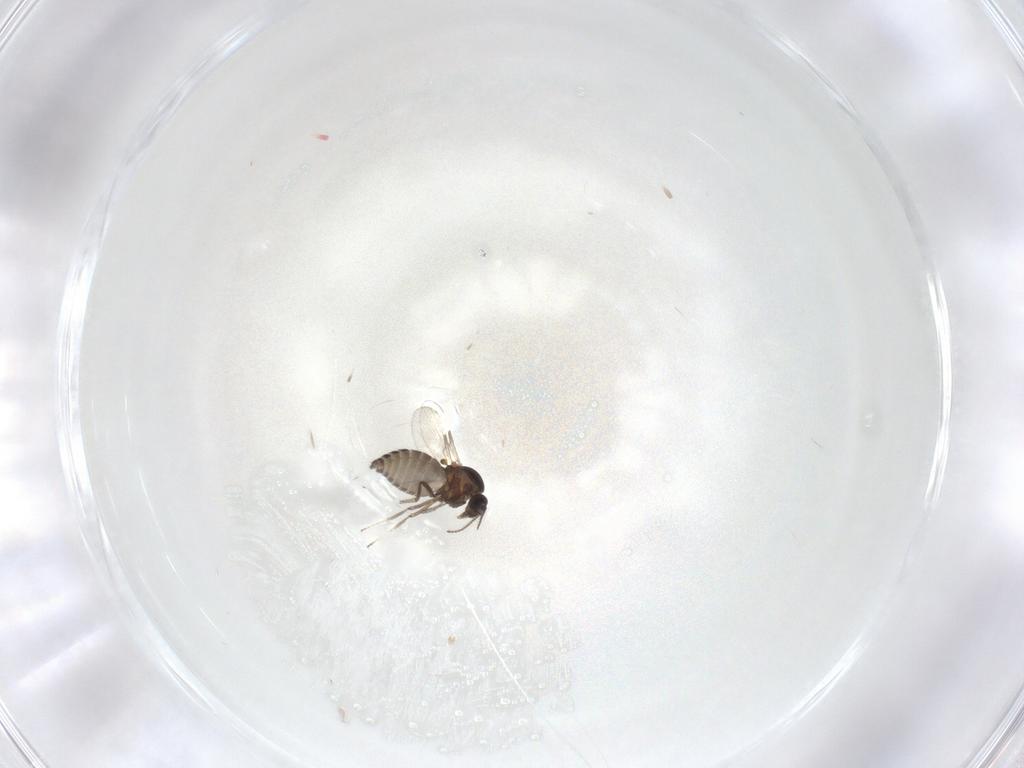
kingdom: Animalia
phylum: Arthropoda
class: Insecta
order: Diptera
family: Ceratopogonidae
